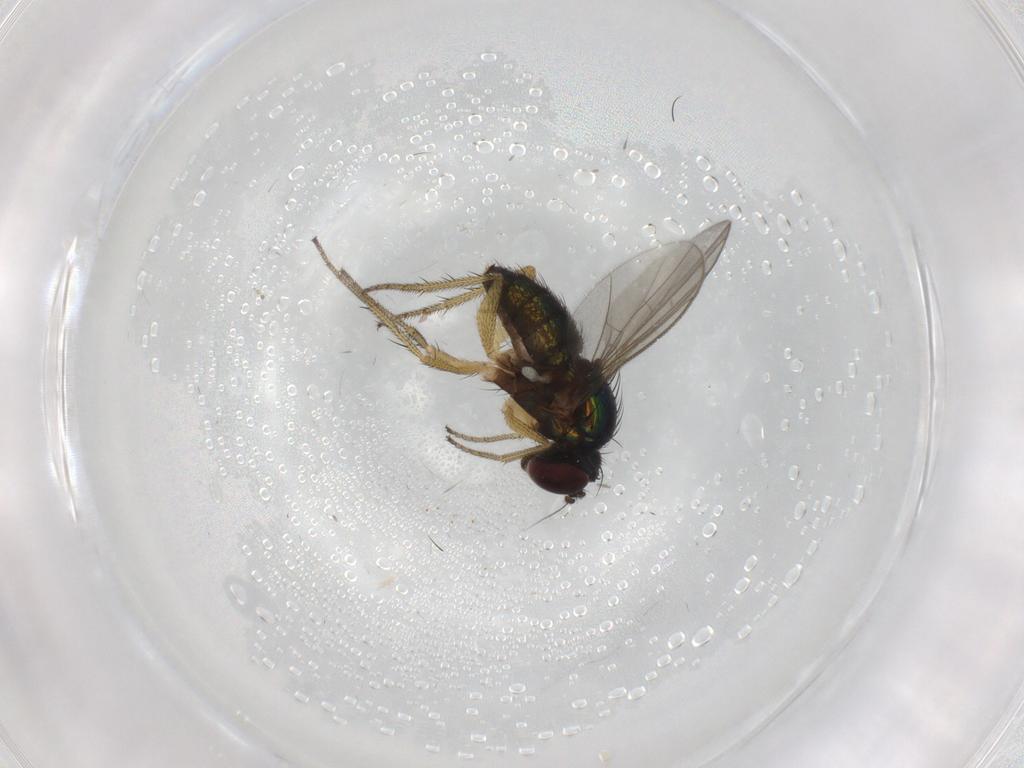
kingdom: Animalia
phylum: Arthropoda
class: Insecta
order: Diptera
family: Dolichopodidae
